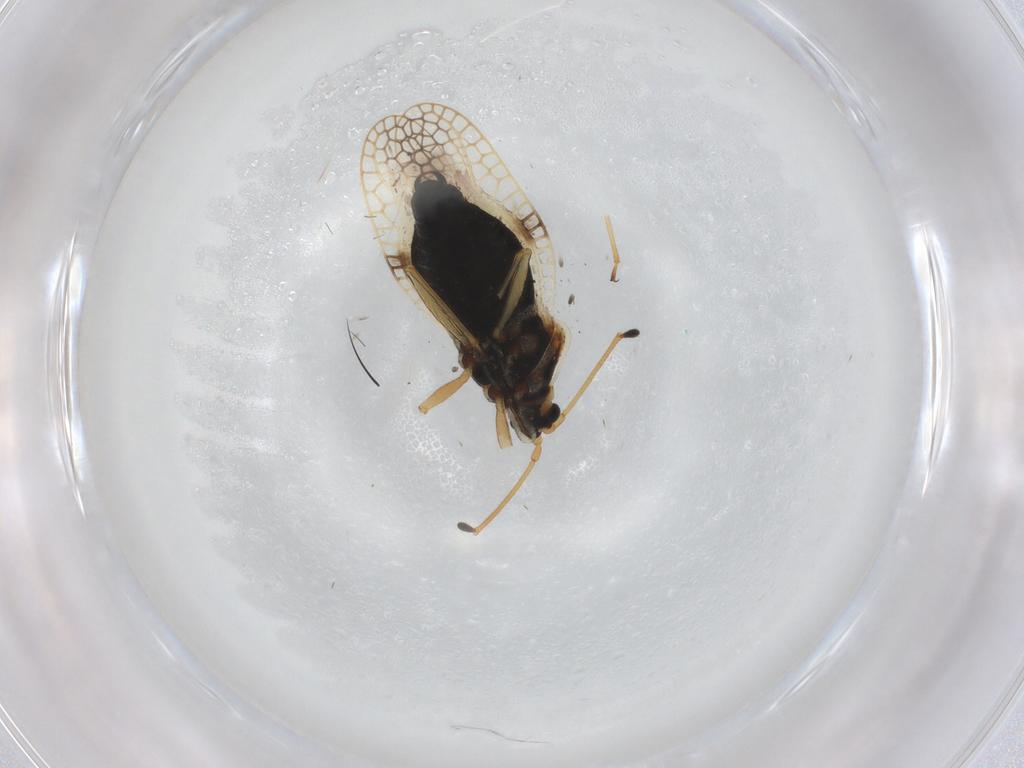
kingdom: Animalia
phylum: Arthropoda
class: Insecta
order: Hemiptera
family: Tingidae
